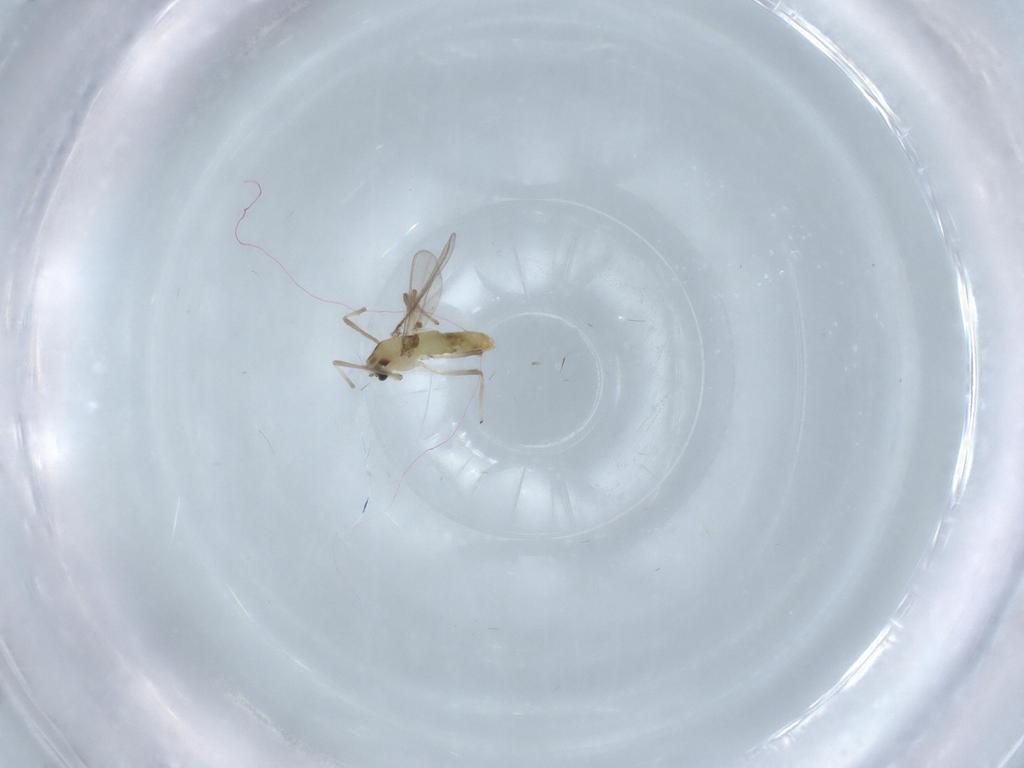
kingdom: Animalia
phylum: Arthropoda
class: Insecta
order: Diptera
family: Chironomidae
